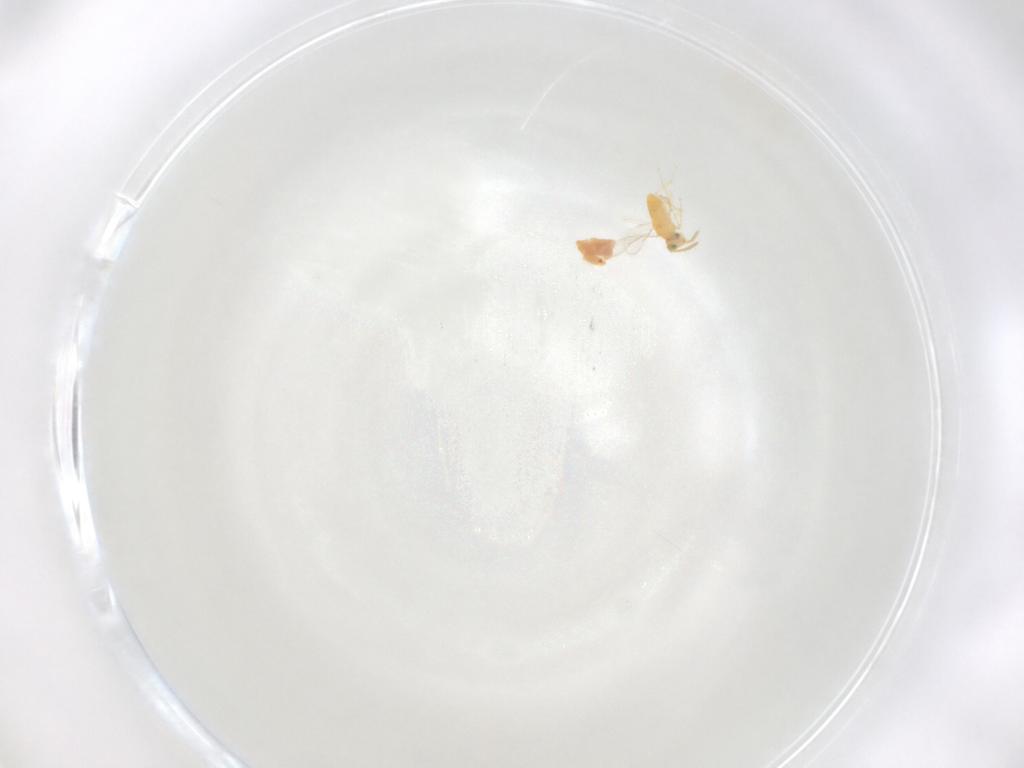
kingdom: Animalia
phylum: Arthropoda
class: Insecta
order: Hymenoptera
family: Aphelinidae
